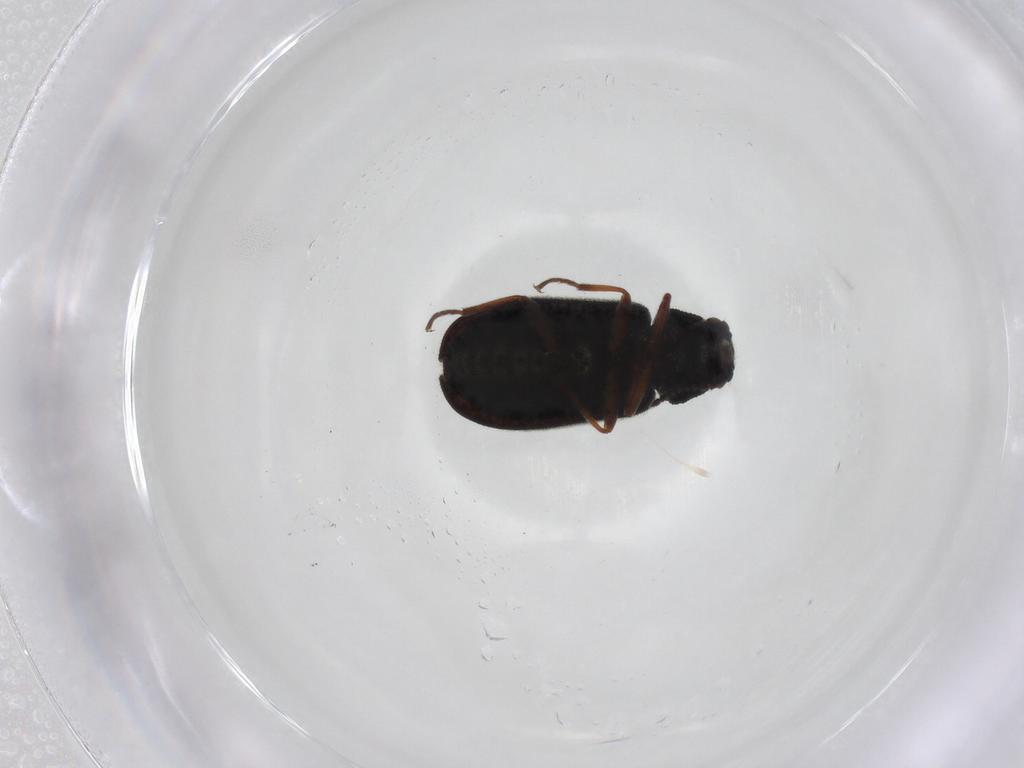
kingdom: Animalia
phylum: Arthropoda
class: Insecta
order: Coleoptera
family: Melyridae
